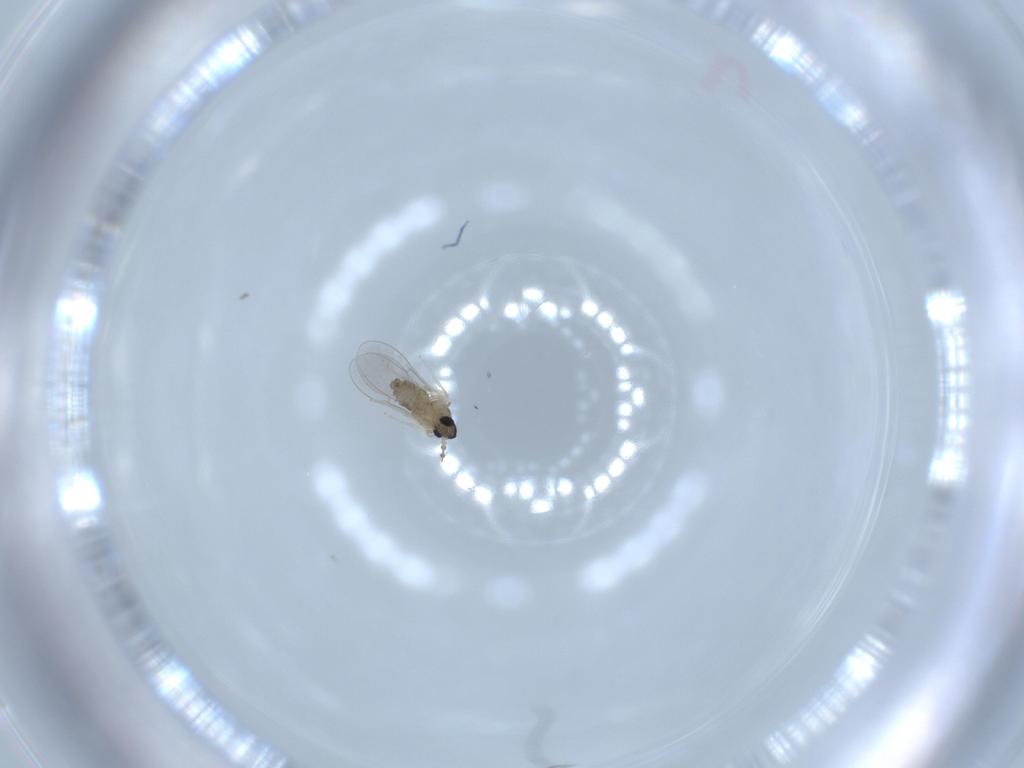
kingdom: Animalia
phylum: Arthropoda
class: Insecta
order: Diptera
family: Cecidomyiidae
